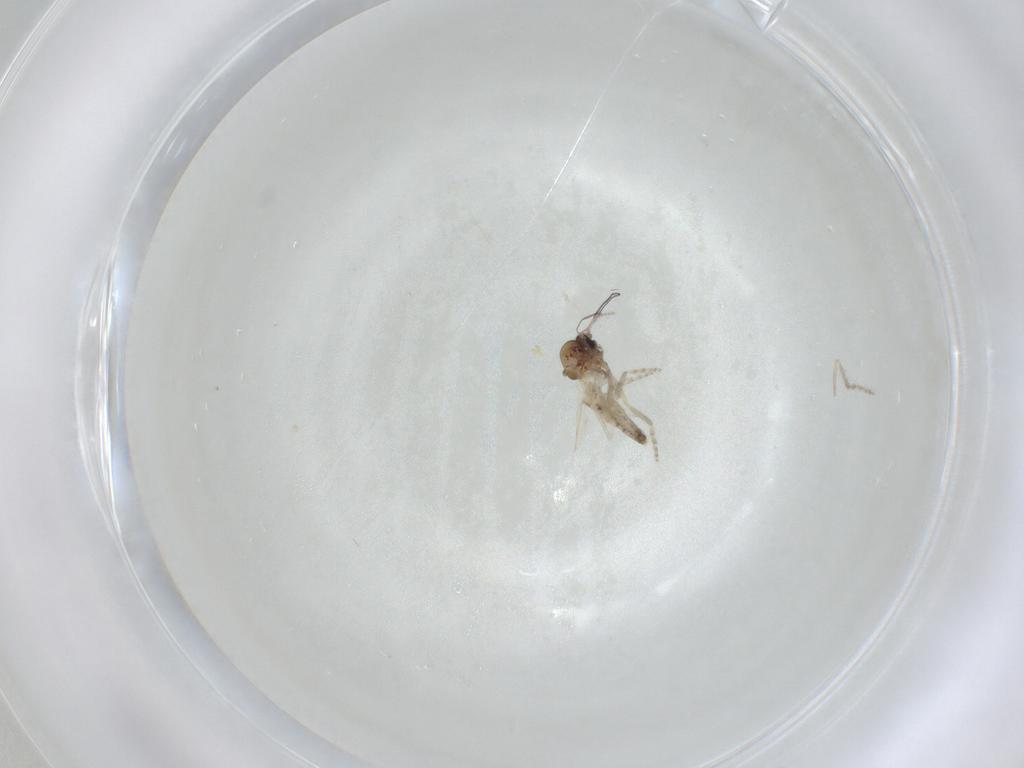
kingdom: Animalia
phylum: Arthropoda
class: Insecta
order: Diptera
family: Ceratopogonidae
